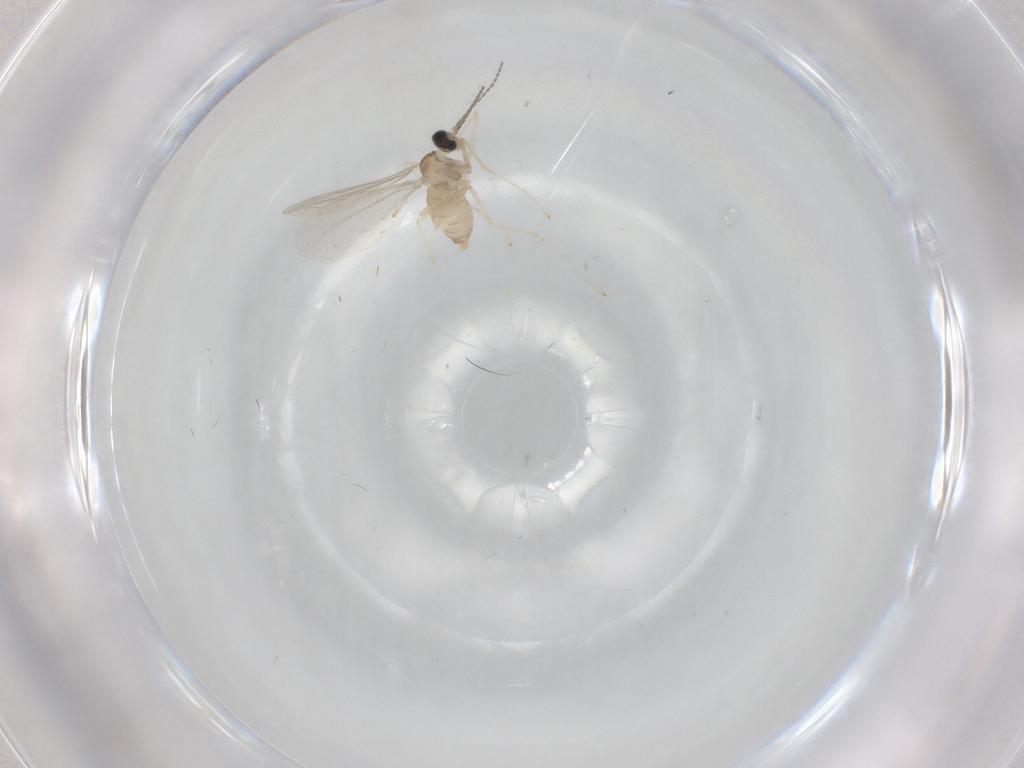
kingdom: Animalia
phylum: Arthropoda
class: Insecta
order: Diptera
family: Cecidomyiidae
